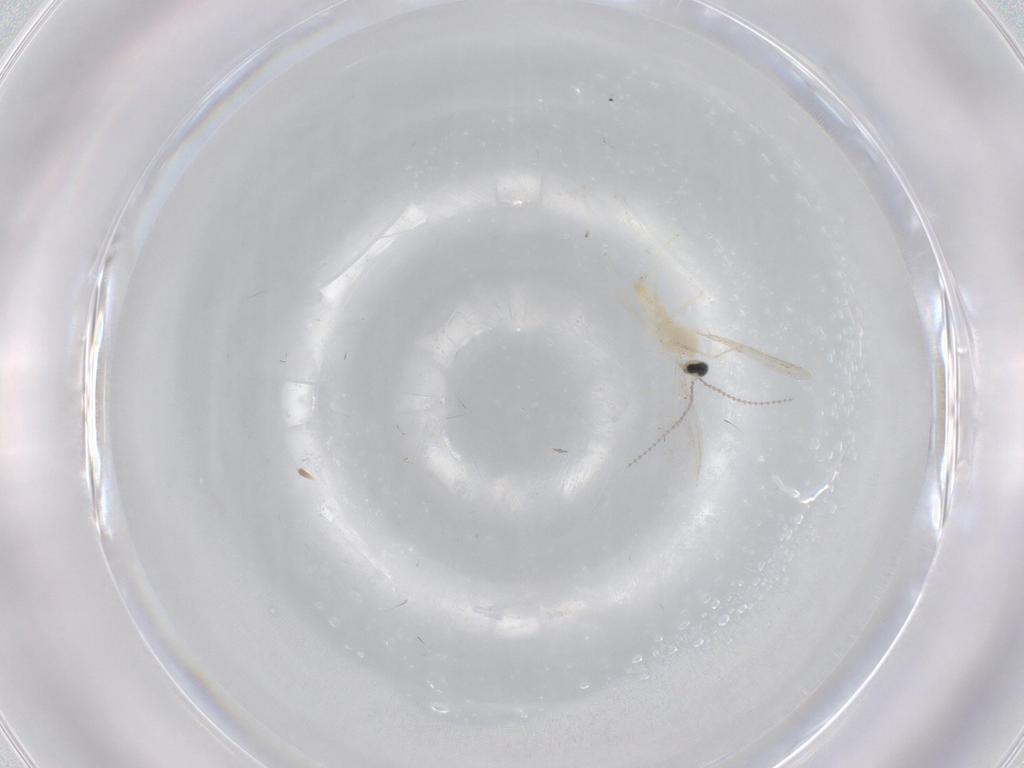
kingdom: Animalia
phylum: Arthropoda
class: Insecta
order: Diptera
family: Cecidomyiidae
